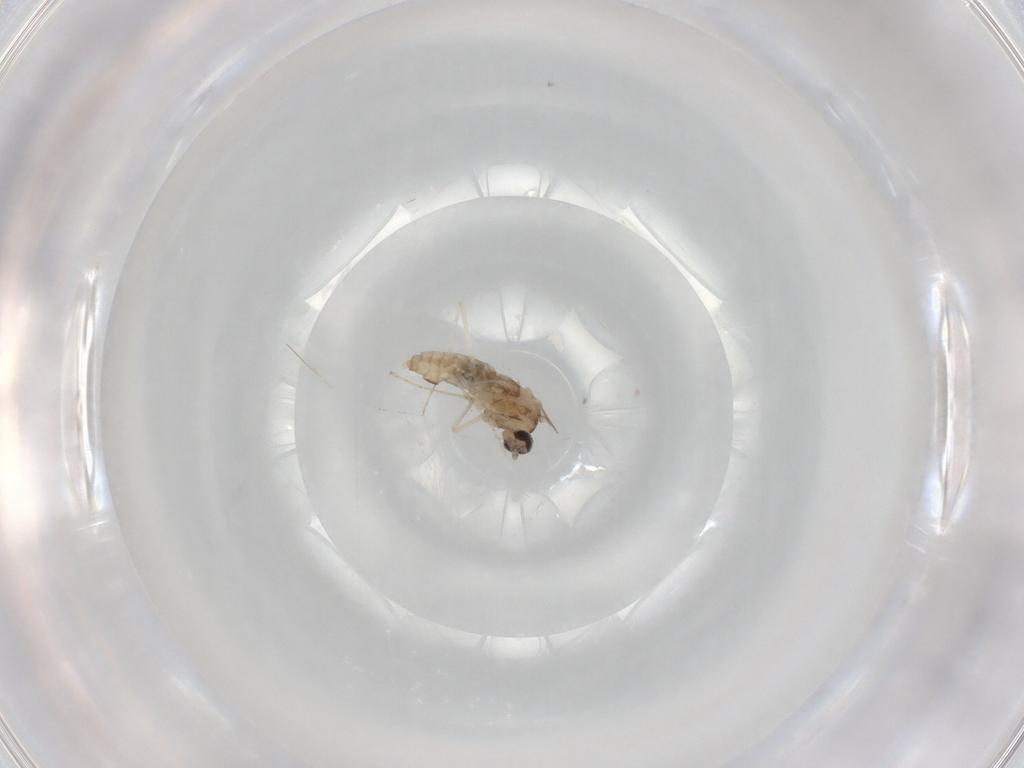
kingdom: Animalia
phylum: Arthropoda
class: Insecta
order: Diptera
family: Cecidomyiidae
